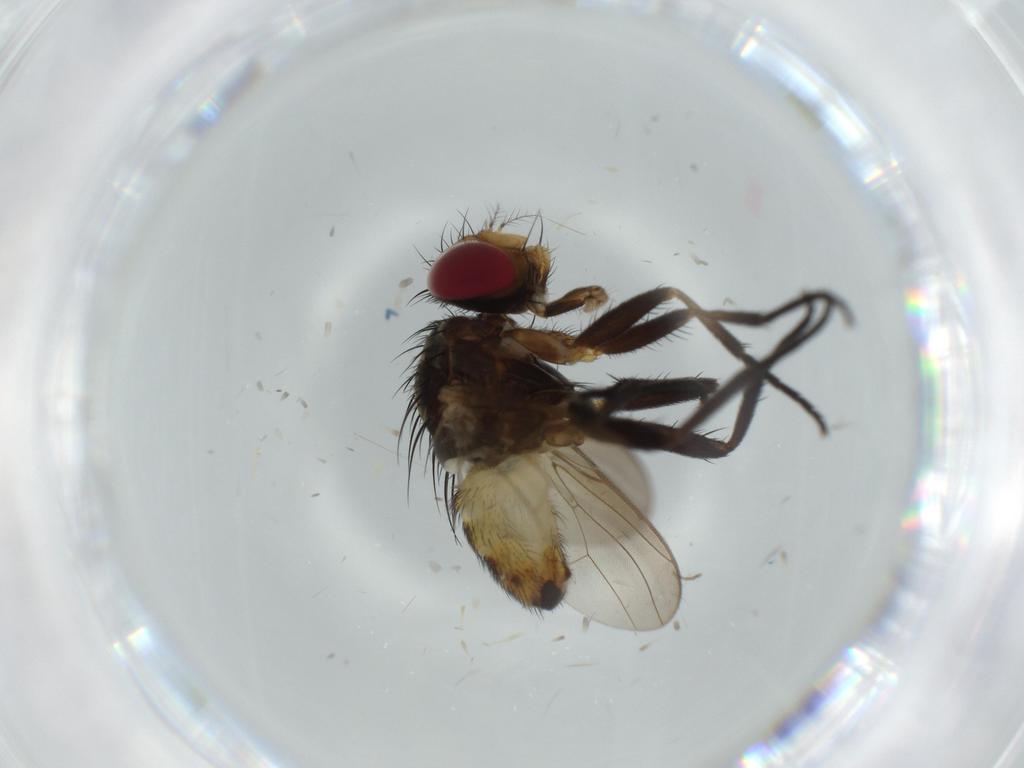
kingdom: Animalia
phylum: Arthropoda
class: Insecta
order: Diptera
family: Anthomyiidae
